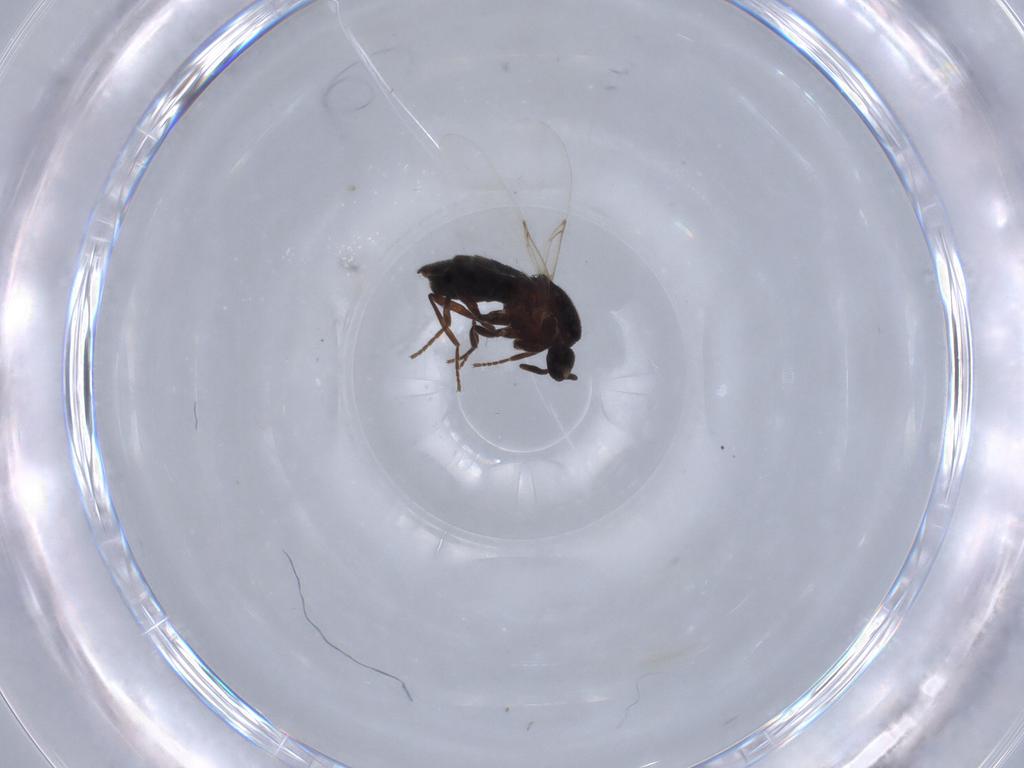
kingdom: Animalia
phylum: Arthropoda
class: Insecta
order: Diptera
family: Scatopsidae
